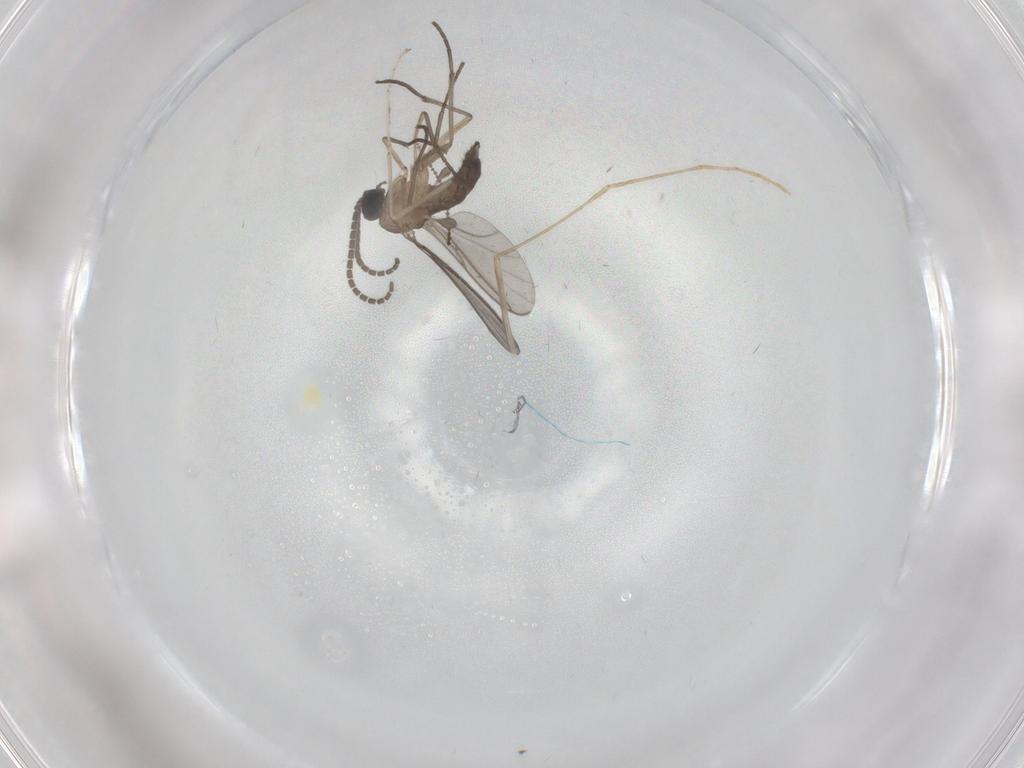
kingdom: Animalia
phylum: Arthropoda
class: Insecta
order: Diptera
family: Cecidomyiidae
